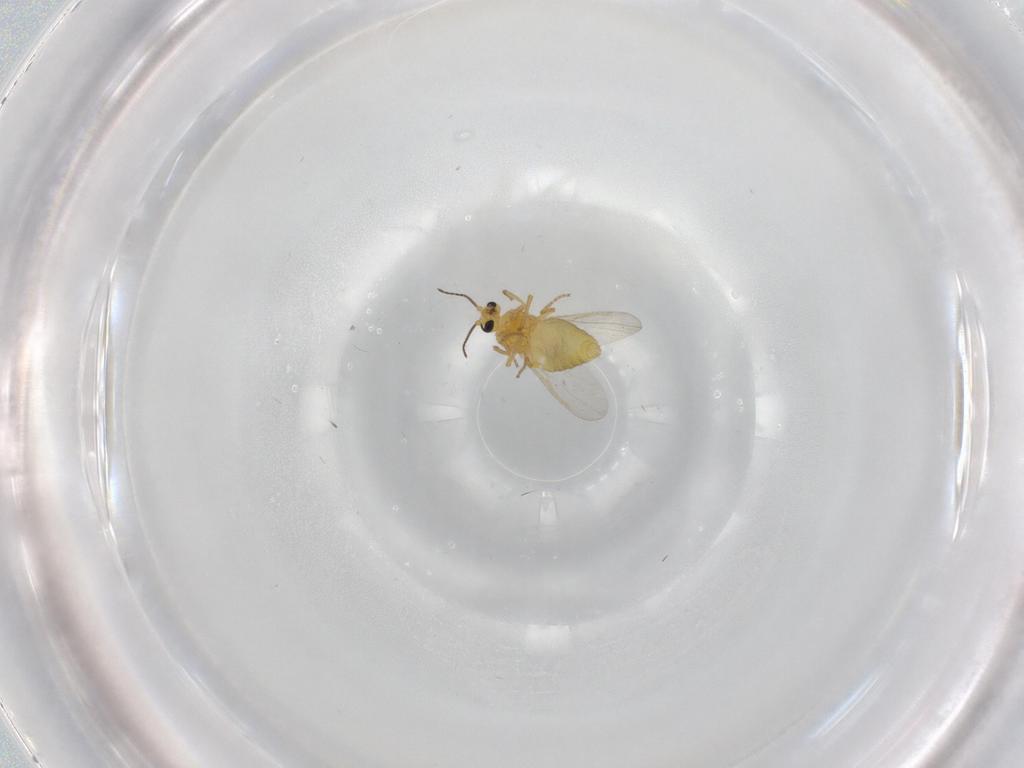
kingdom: Animalia
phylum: Arthropoda
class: Insecta
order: Diptera
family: Ceratopogonidae
